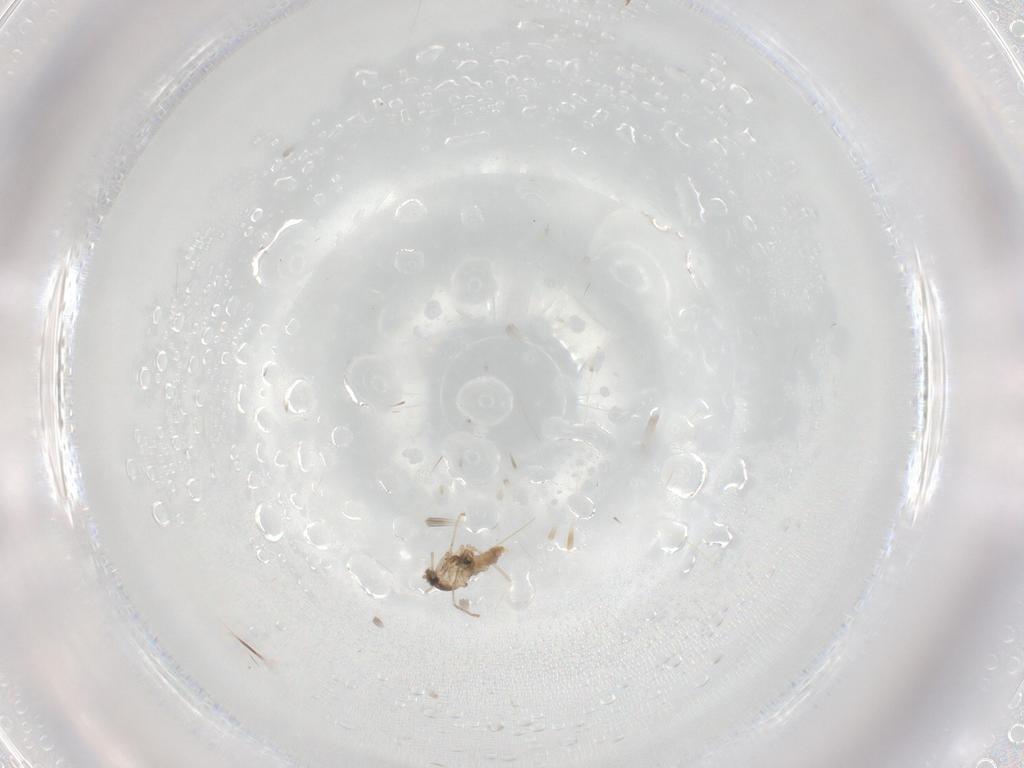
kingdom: Animalia
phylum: Arthropoda
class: Insecta
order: Diptera
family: Cecidomyiidae
